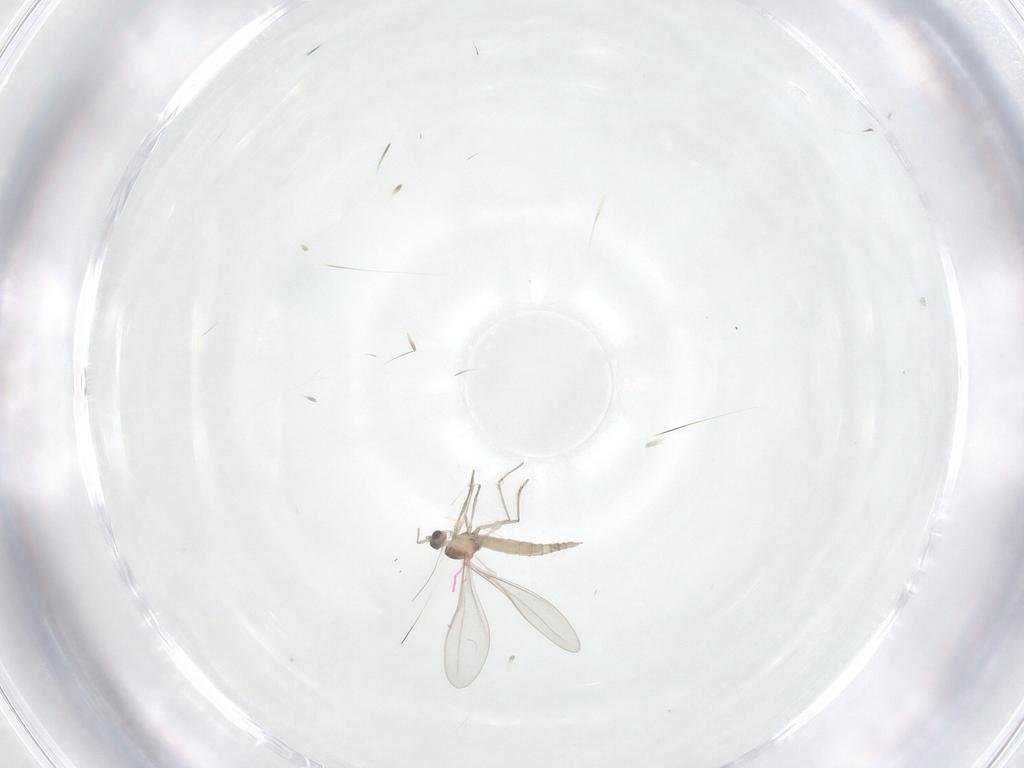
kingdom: Animalia
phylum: Arthropoda
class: Insecta
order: Diptera
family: Cecidomyiidae
